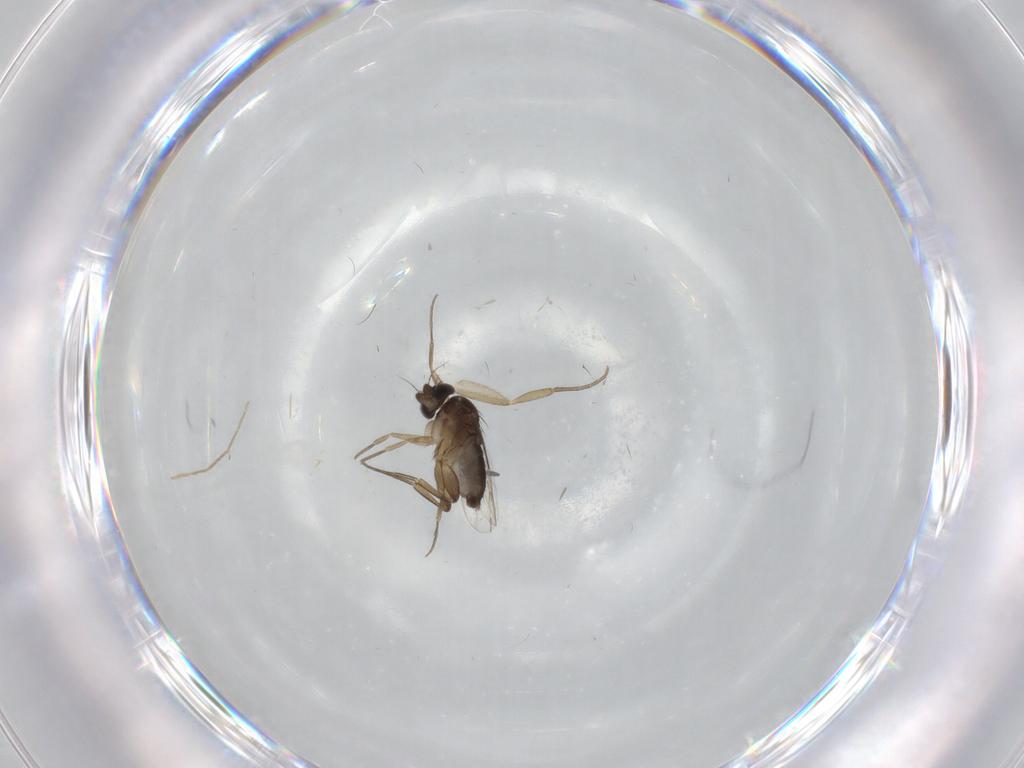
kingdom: Animalia
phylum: Arthropoda
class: Insecta
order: Diptera
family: Phoridae
